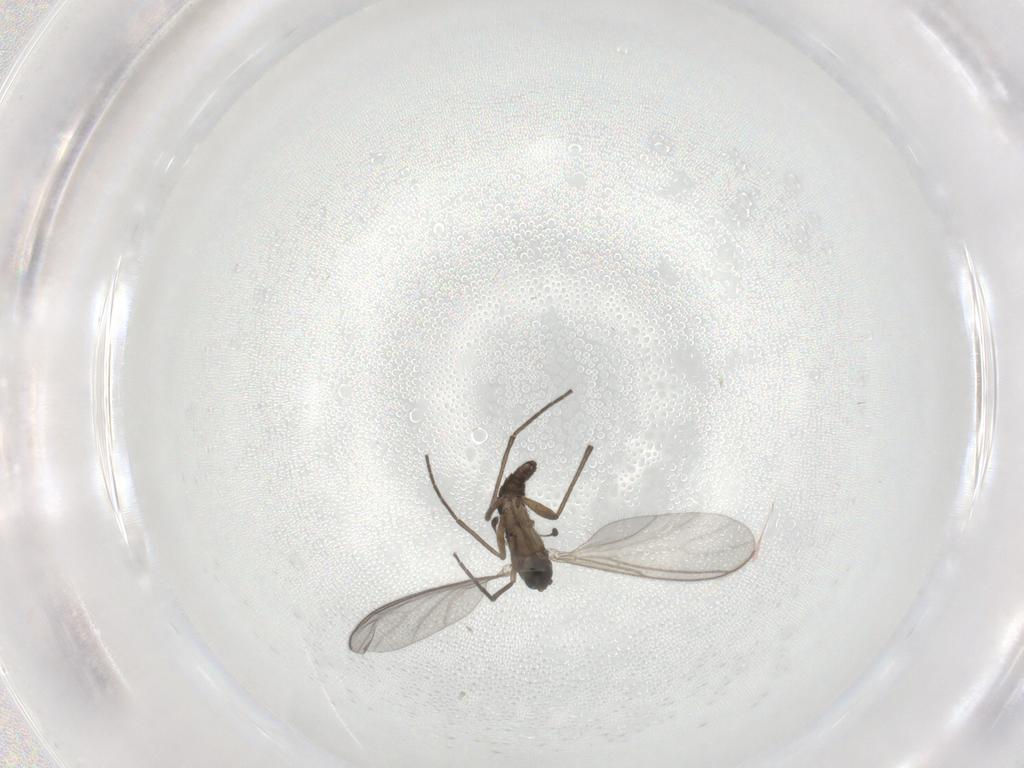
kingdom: Animalia
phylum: Arthropoda
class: Insecta
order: Diptera
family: Sciaridae
